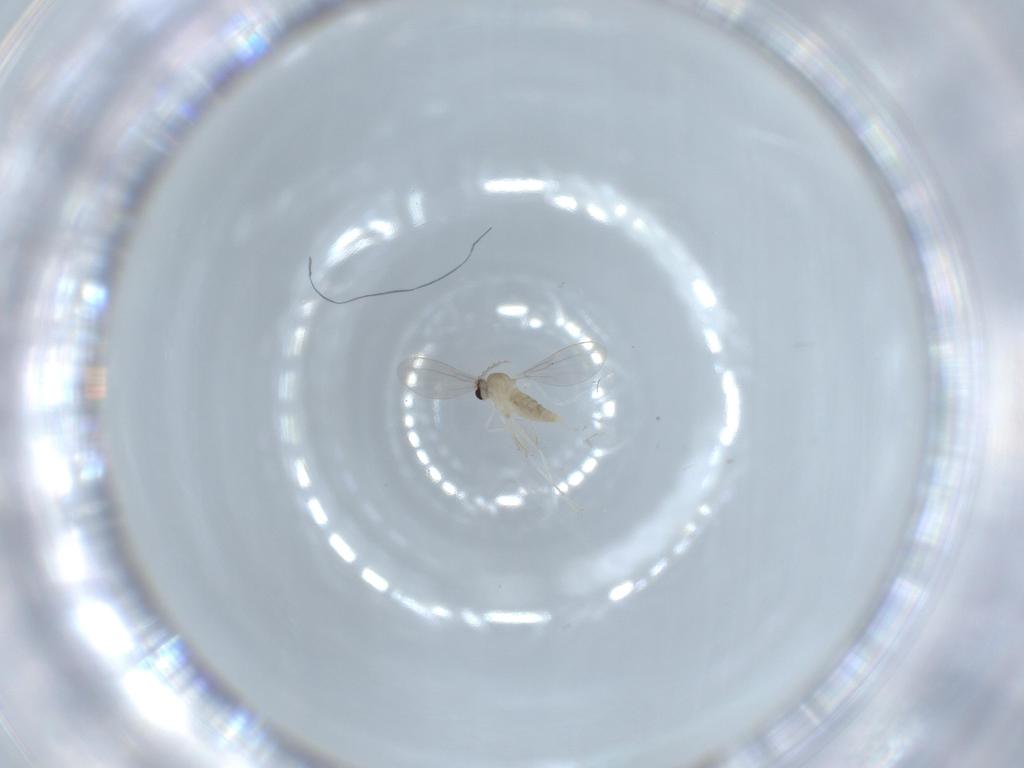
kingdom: Animalia
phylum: Arthropoda
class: Insecta
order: Diptera
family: Cecidomyiidae
